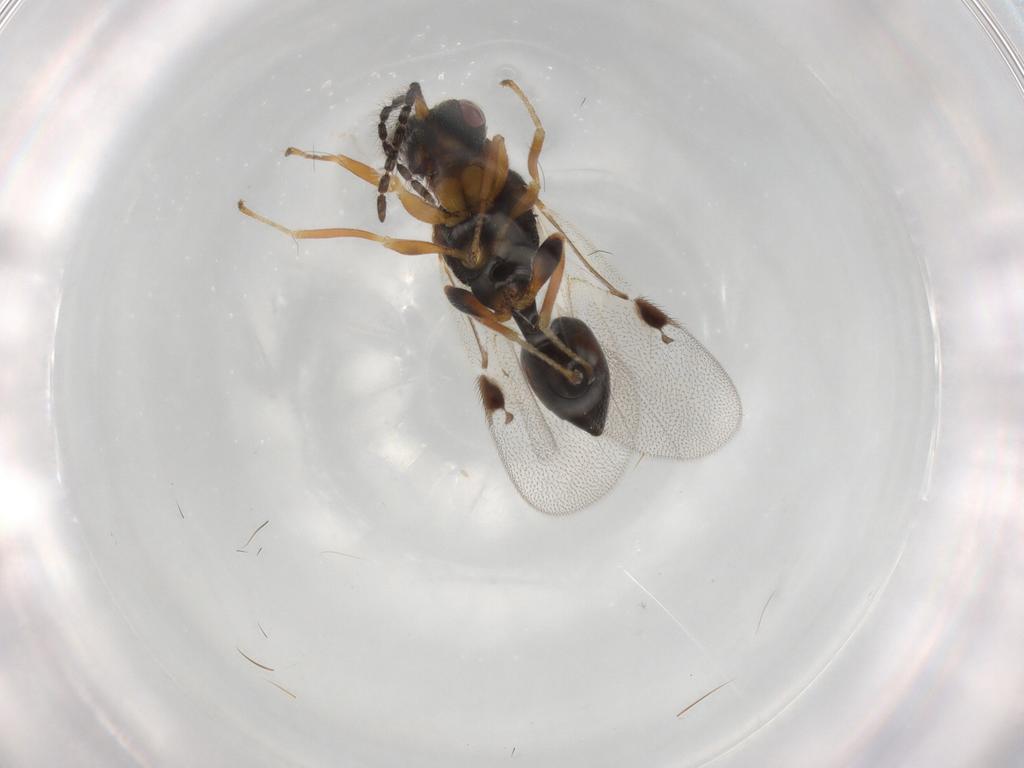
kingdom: Animalia
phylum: Arthropoda
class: Insecta
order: Hymenoptera
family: Eurytomidae
